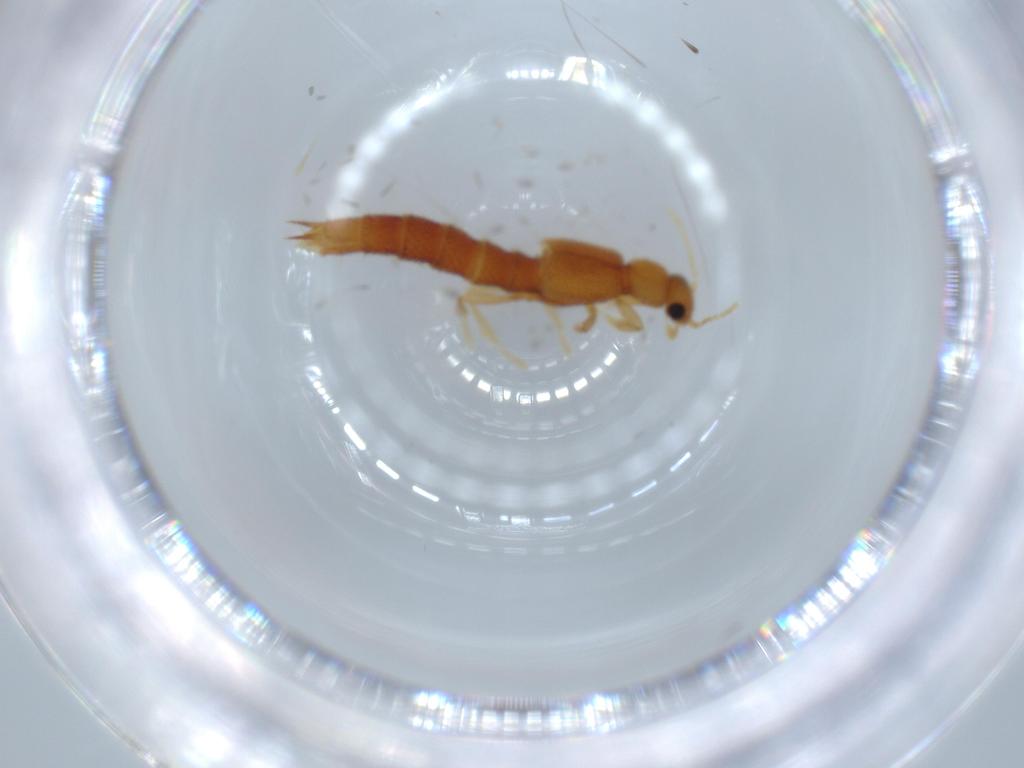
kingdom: Animalia
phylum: Arthropoda
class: Insecta
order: Coleoptera
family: Staphylinidae
